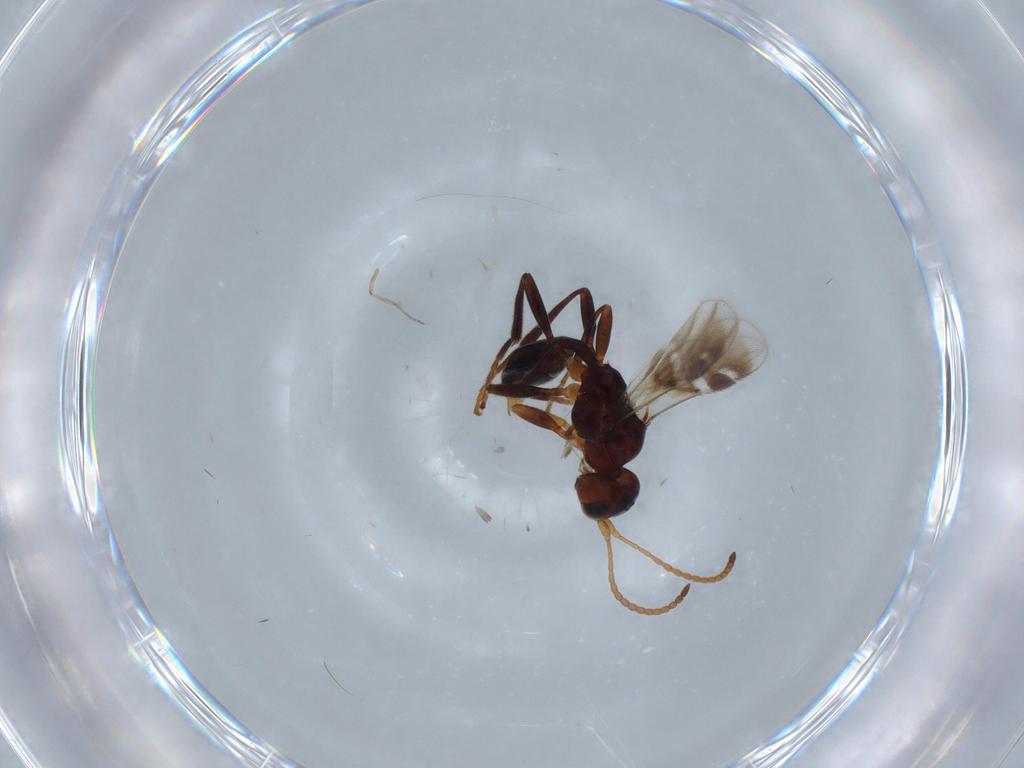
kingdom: Animalia
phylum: Arthropoda
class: Insecta
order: Hymenoptera
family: Braconidae
